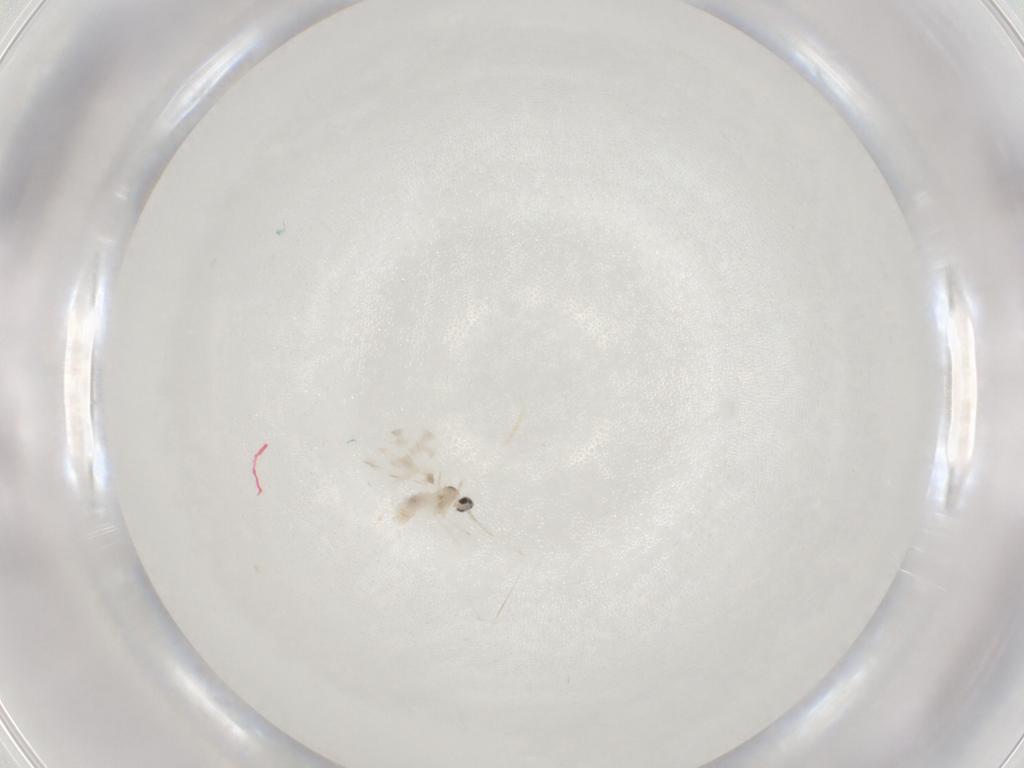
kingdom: Animalia
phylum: Arthropoda
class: Insecta
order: Diptera
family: Cecidomyiidae
